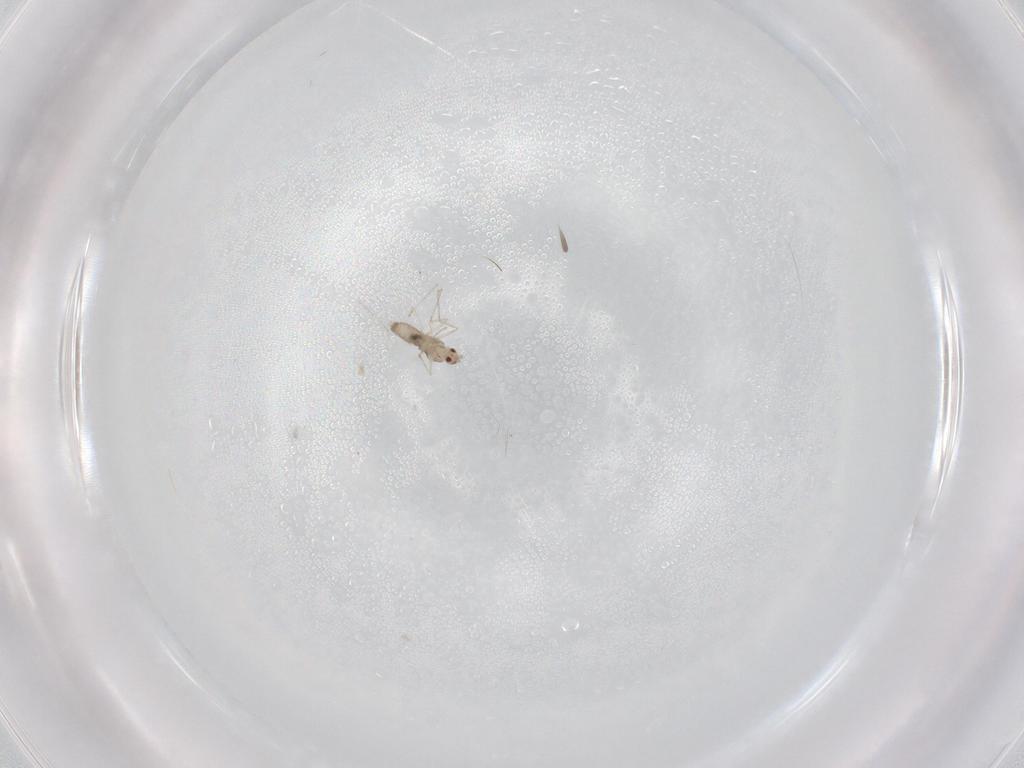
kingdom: Animalia
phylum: Arthropoda
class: Insecta
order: Diptera
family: Cecidomyiidae
